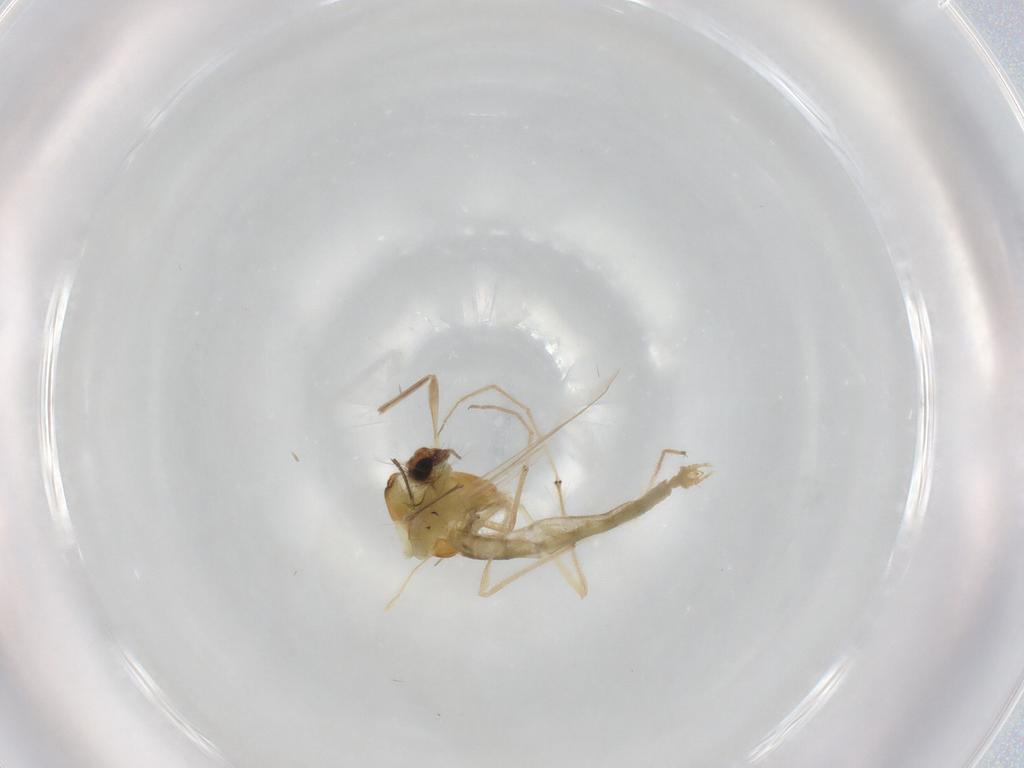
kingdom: Animalia
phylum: Arthropoda
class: Insecta
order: Diptera
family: Chironomidae
